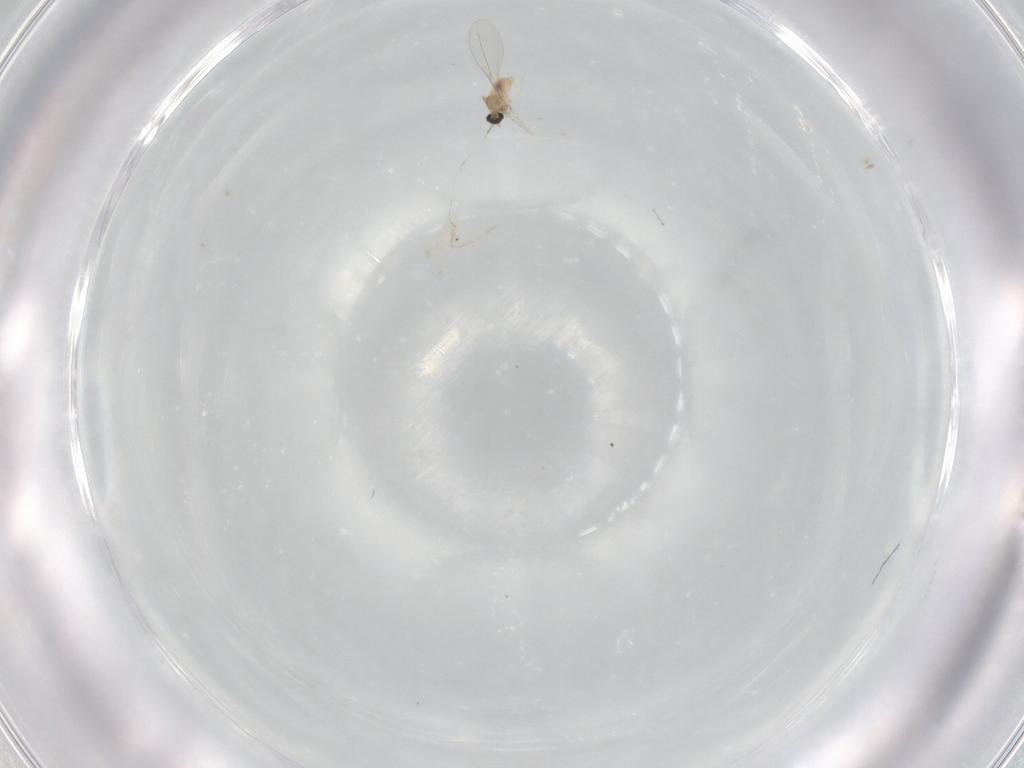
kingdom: Animalia
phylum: Arthropoda
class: Insecta
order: Diptera
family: Cecidomyiidae
